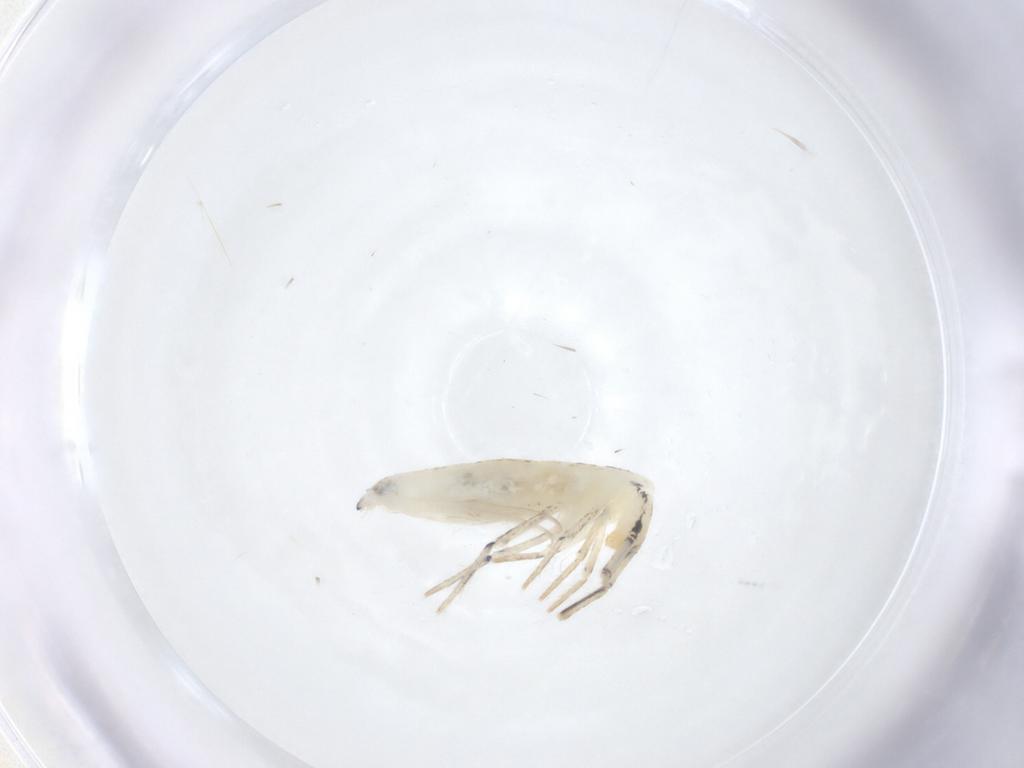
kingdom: Animalia
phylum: Arthropoda
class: Collembola
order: Entomobryomorpha
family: Entomobryidae
